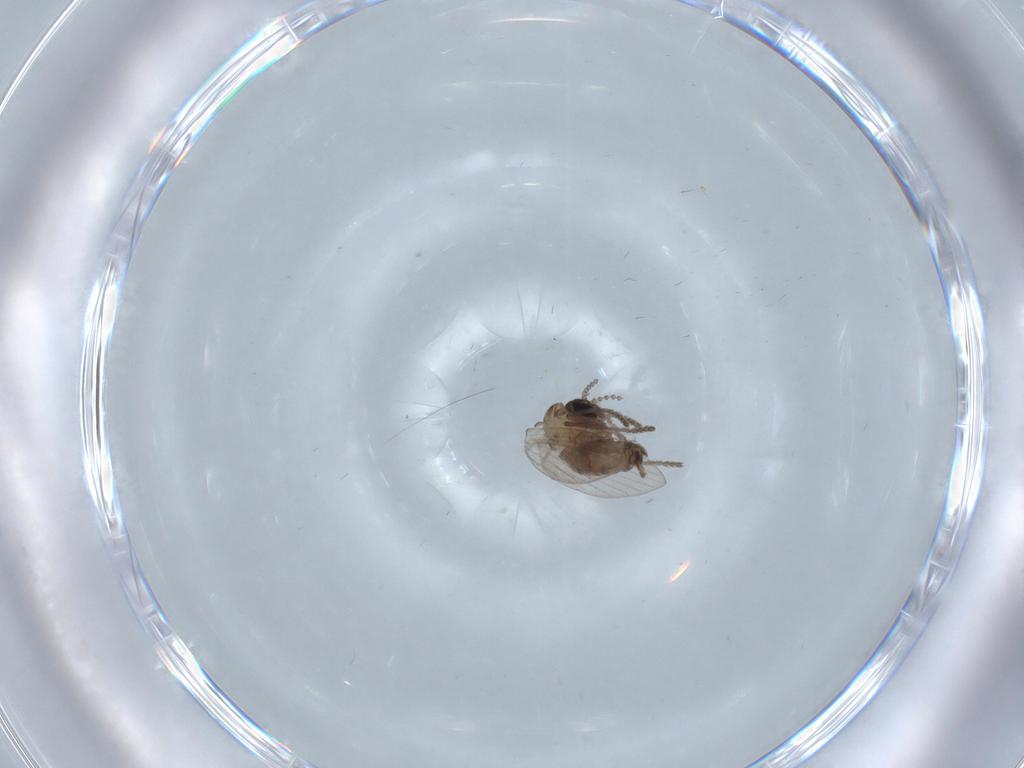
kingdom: Animalia
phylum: Arthropoda
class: Insecta
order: Diptera
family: Psychodidae
